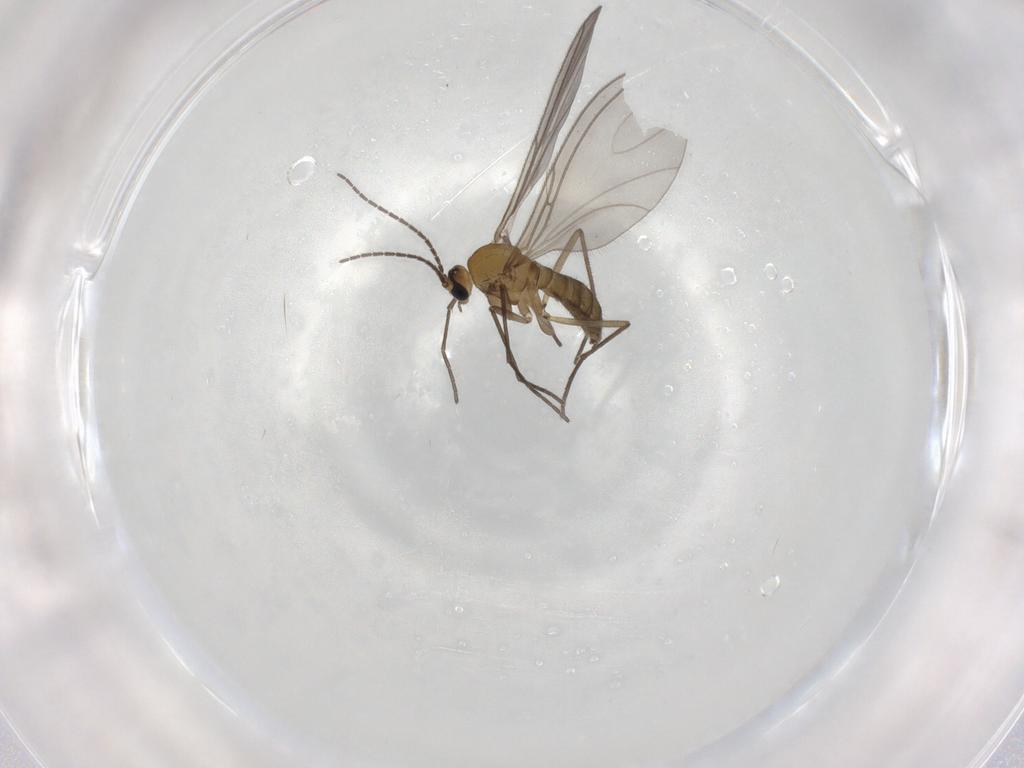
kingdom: Animalia
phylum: Arthropoda
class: Insecta
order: Diptera
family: Sciaridae
